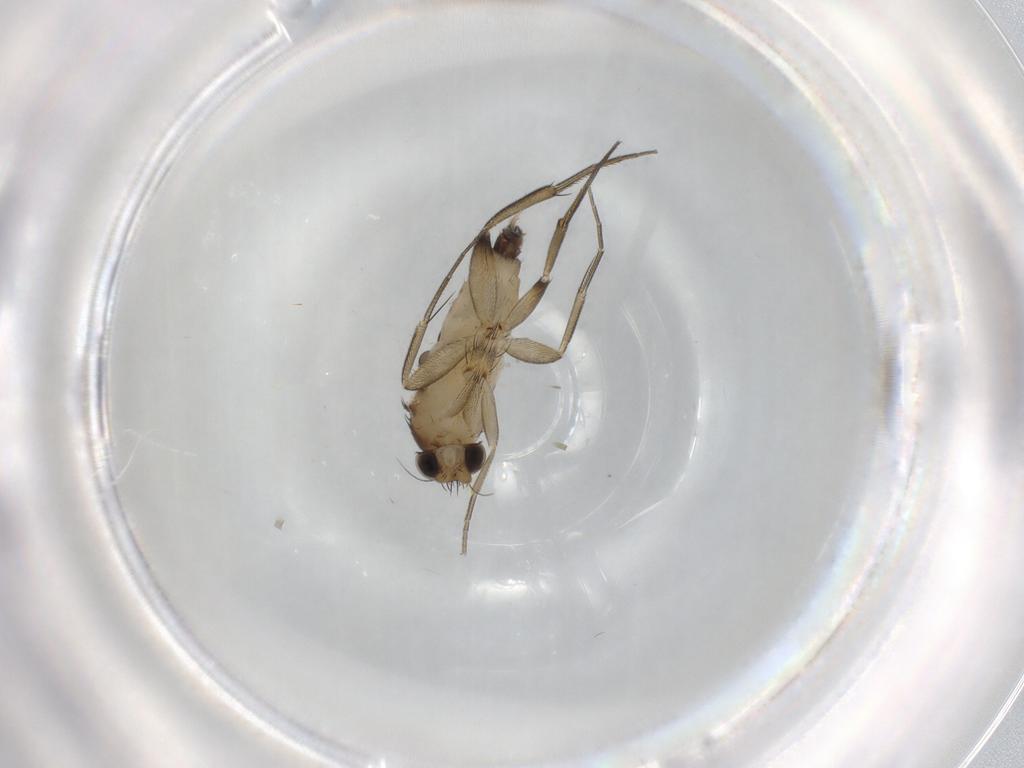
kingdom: Animalia
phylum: Arthropoda
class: Insecta
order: Diptera
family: Phoridae
